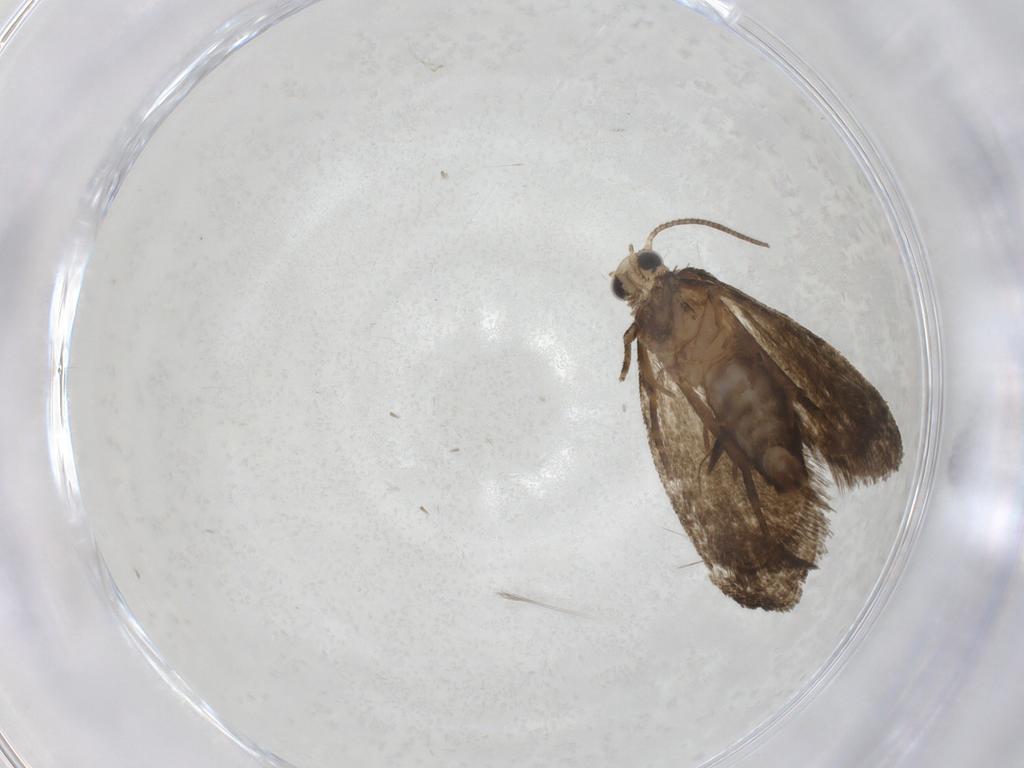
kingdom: Animalia
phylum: Arthropoda
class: Insecta
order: Lepidoptera
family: Tortricidae
